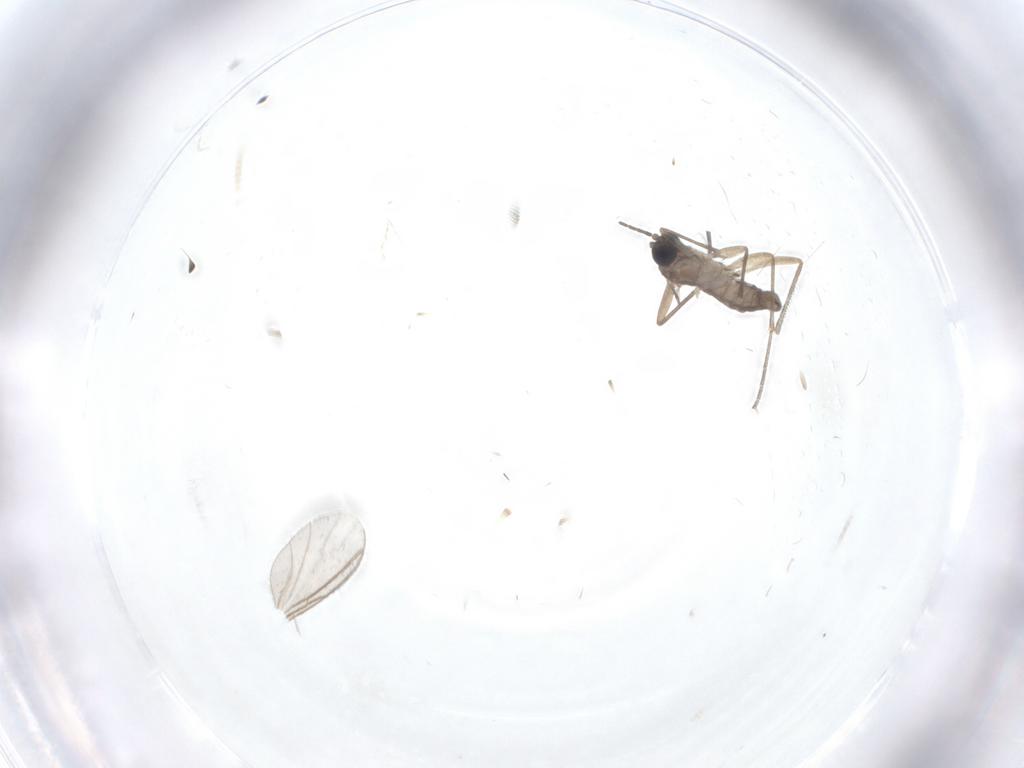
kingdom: Animalia
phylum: Arthropoda
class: Insecta
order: Diptera
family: Sciaridae
